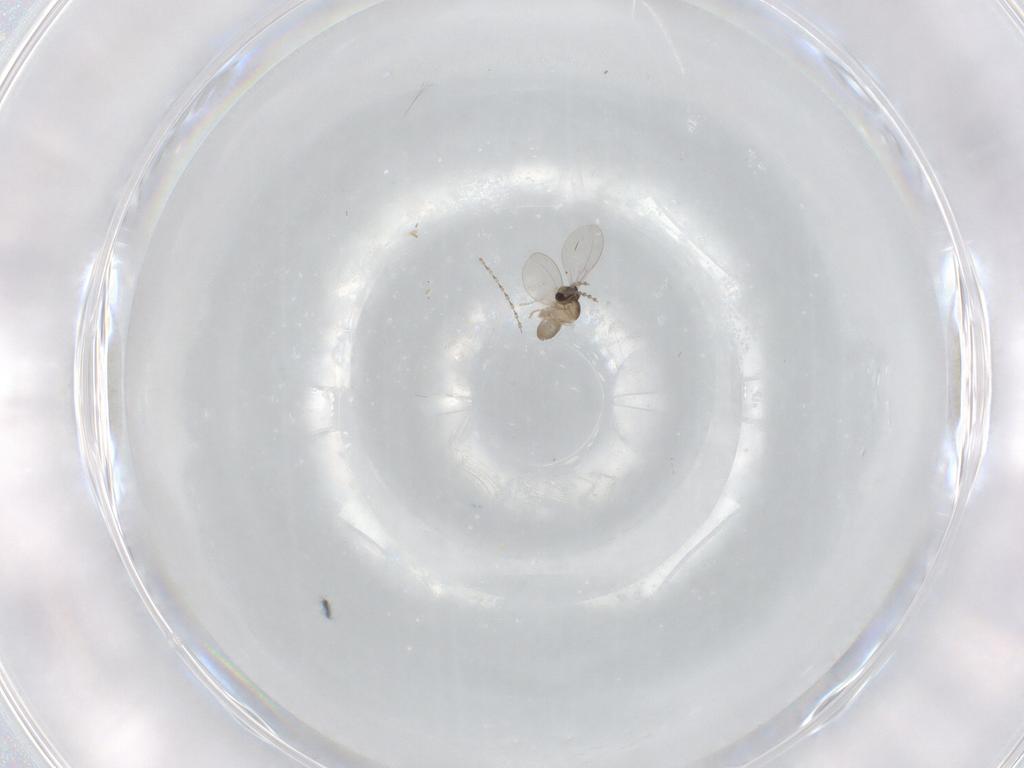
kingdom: Animalia
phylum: Arthropoda
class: Insecta
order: Diptera
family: Cecidomyiidae
